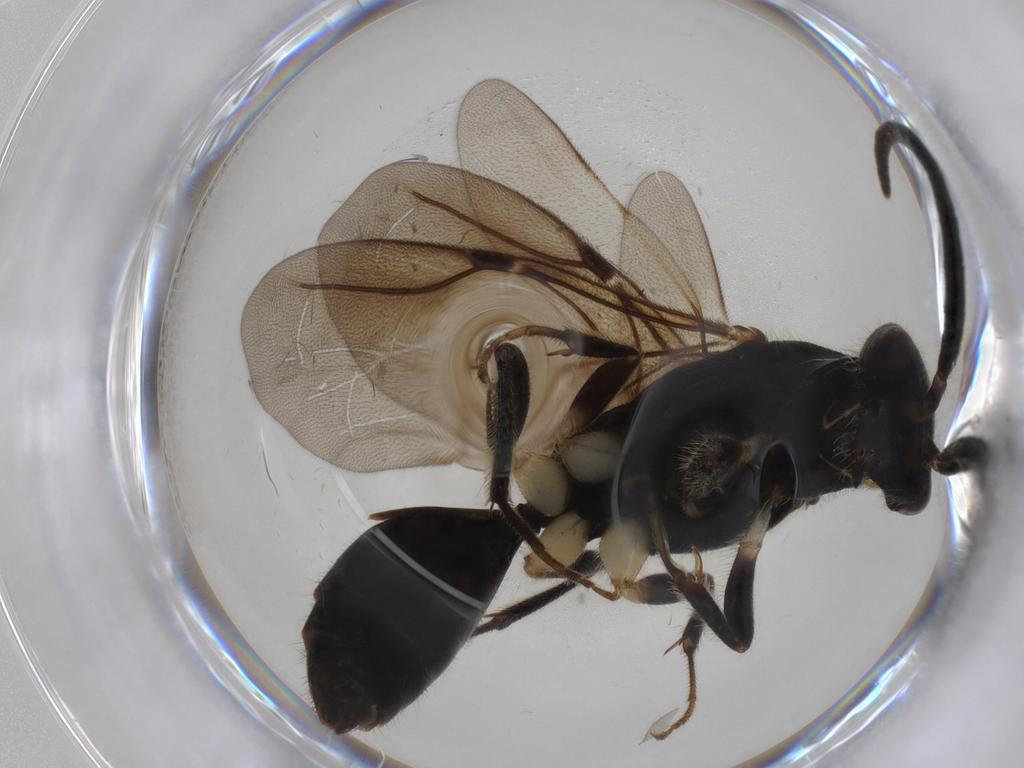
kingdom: Animalia
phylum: Arthropoda
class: Insecta
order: Hymenoptera
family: Bethylidae
